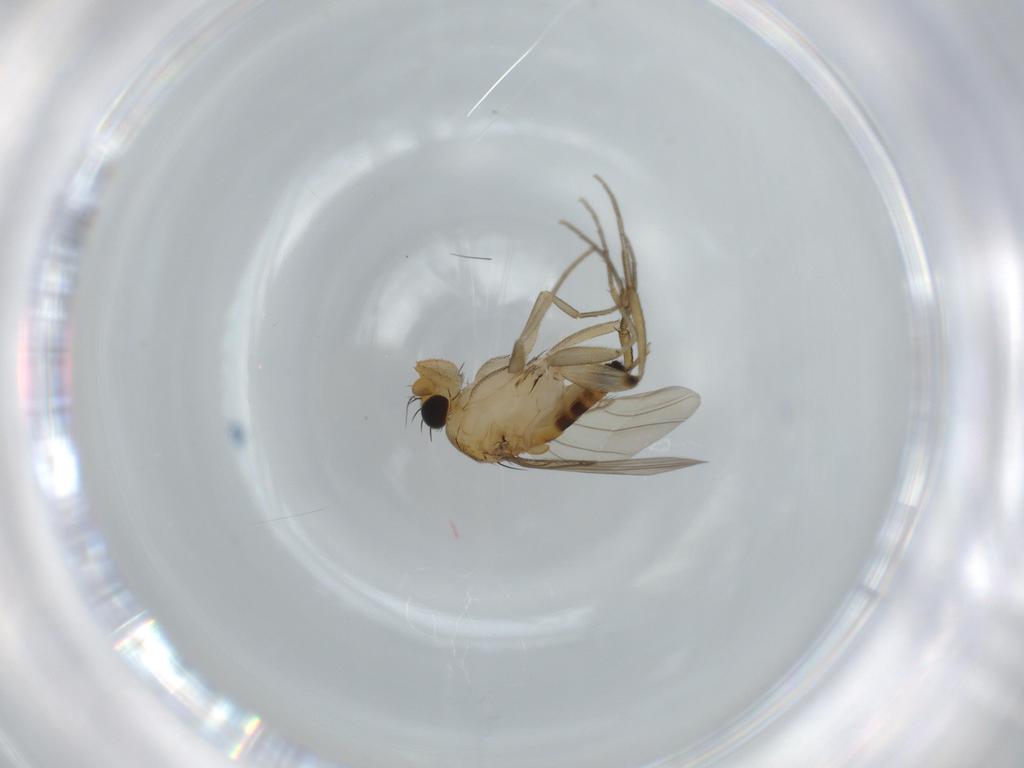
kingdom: Animalia
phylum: Arthropoda
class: Insecta
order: Diptera
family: Phoridae
